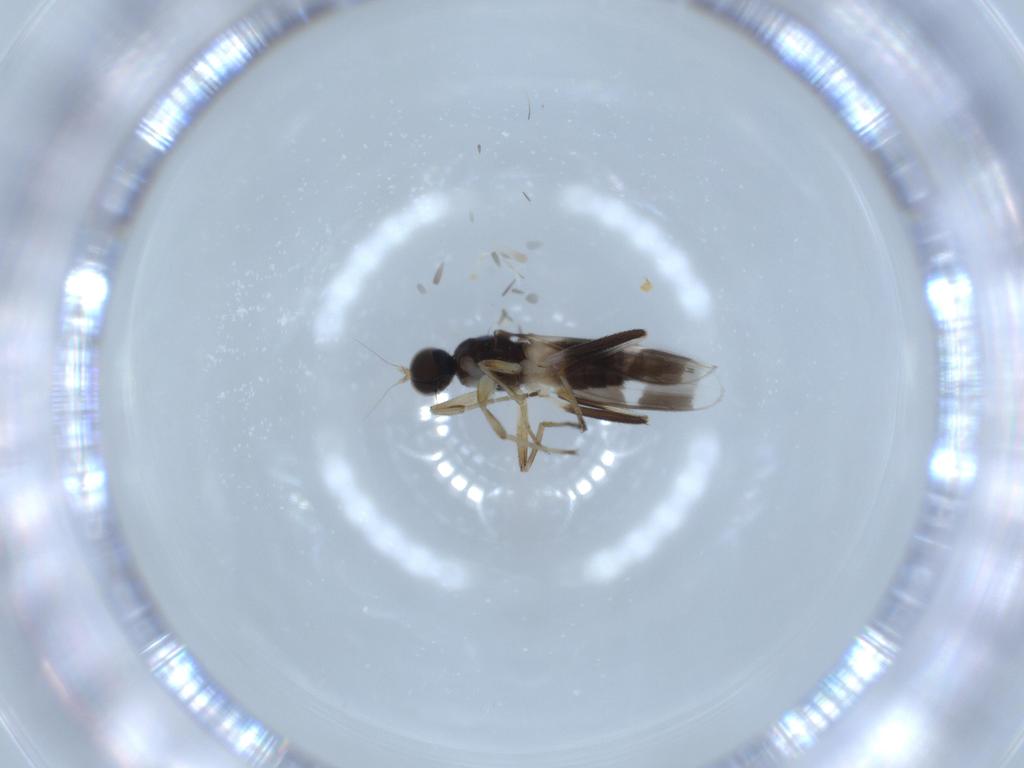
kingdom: Animalia
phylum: Arthropoda
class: Insecta
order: Diptera
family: Hybotidae
